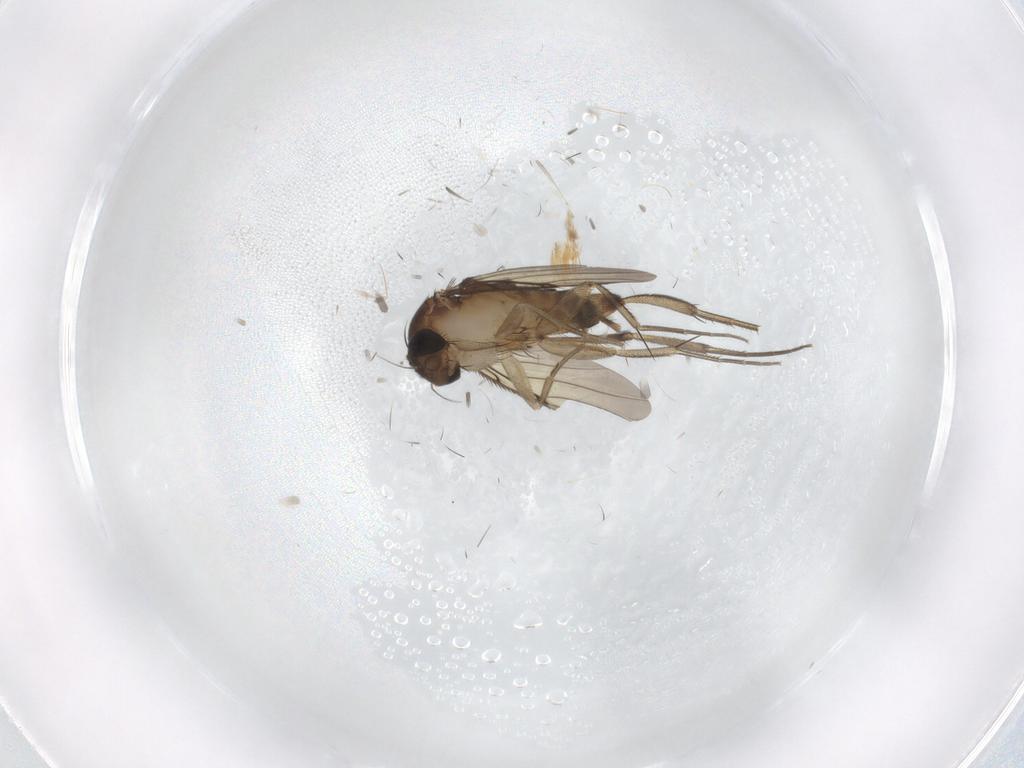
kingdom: Animalia
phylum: Arthropoda
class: Insecta
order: Diptera
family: Phoridae
